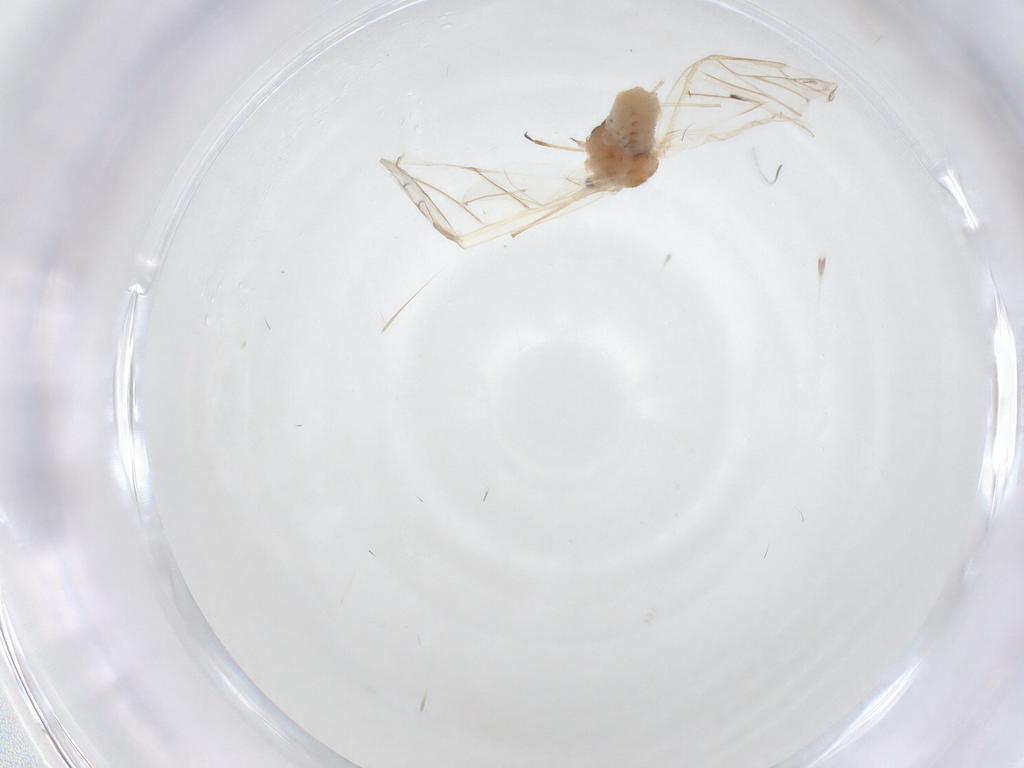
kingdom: Animalia
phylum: Arthropoda
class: Insecta
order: Hemiptera
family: Aphididae
